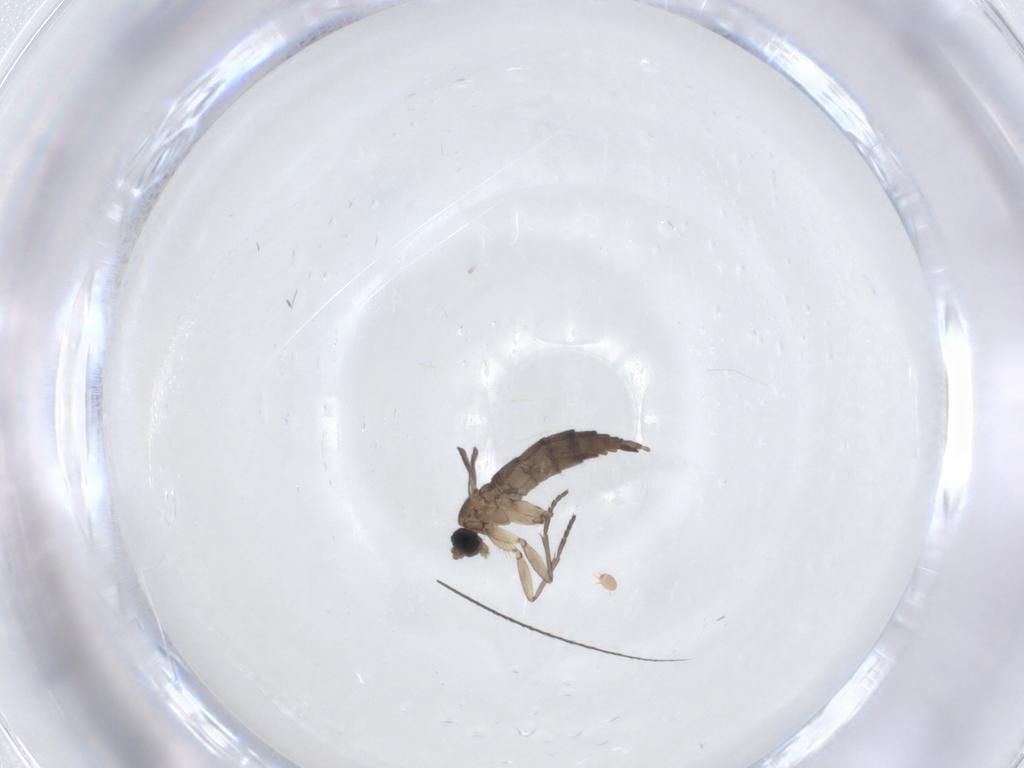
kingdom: Animalia
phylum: Arthropoda
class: Insecta
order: Diptera
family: Sciaridae
